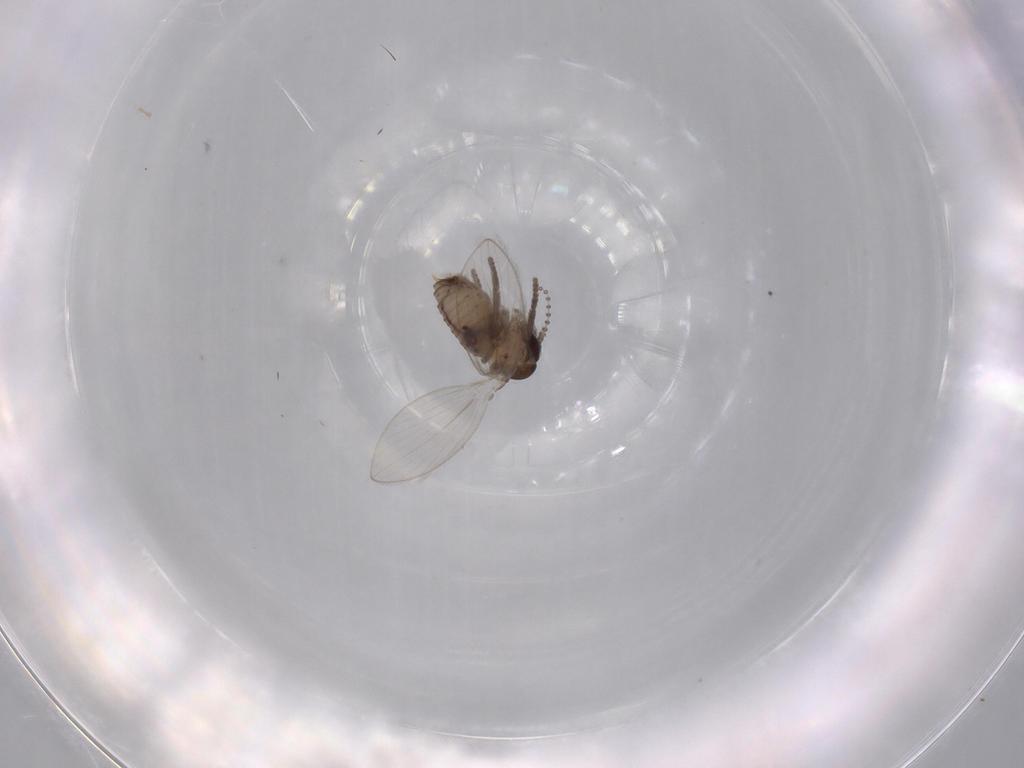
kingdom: Animalia
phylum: Arthropoda
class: Insecta
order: Diptera
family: Psychodidae
